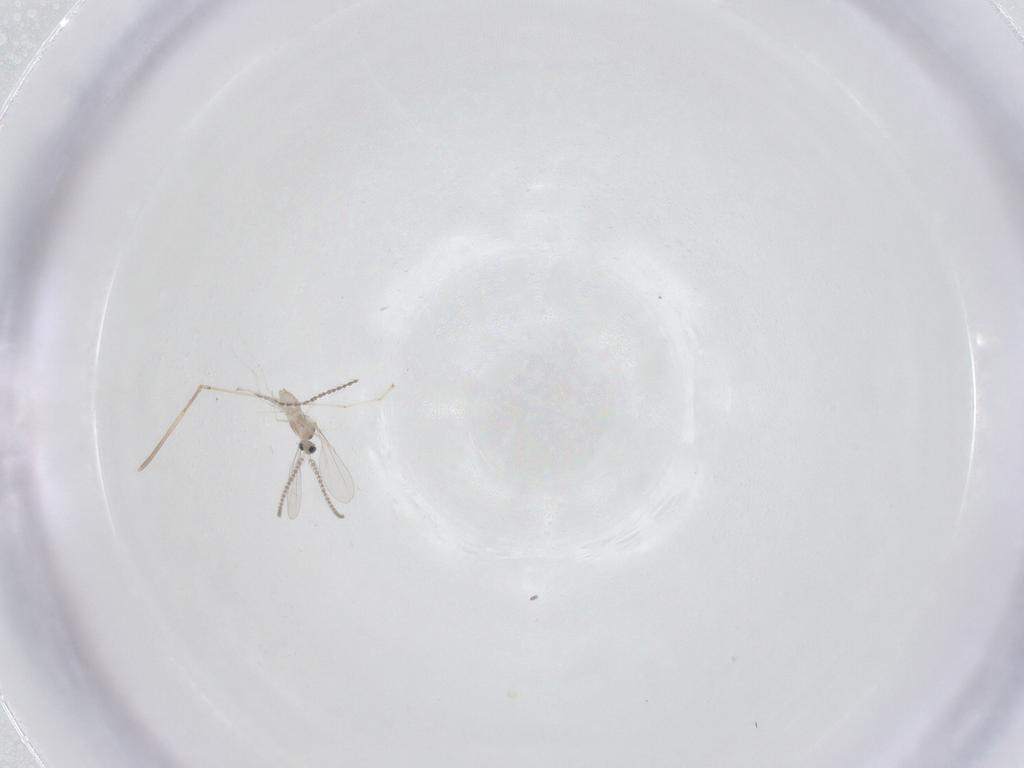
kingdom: Animalia
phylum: Arthropoda
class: Insecta
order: Diptera
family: Cecidomyiidae
